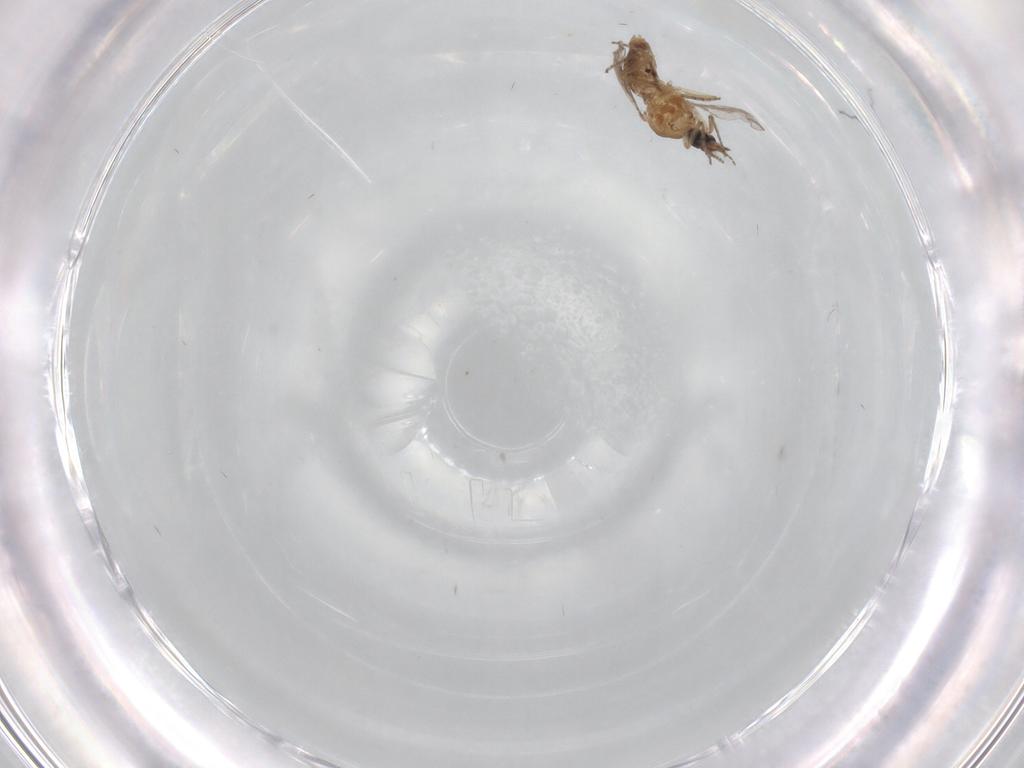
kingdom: Animalia
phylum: Arthropoda
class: Insecta
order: Diptera
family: Ceratopogonidae
